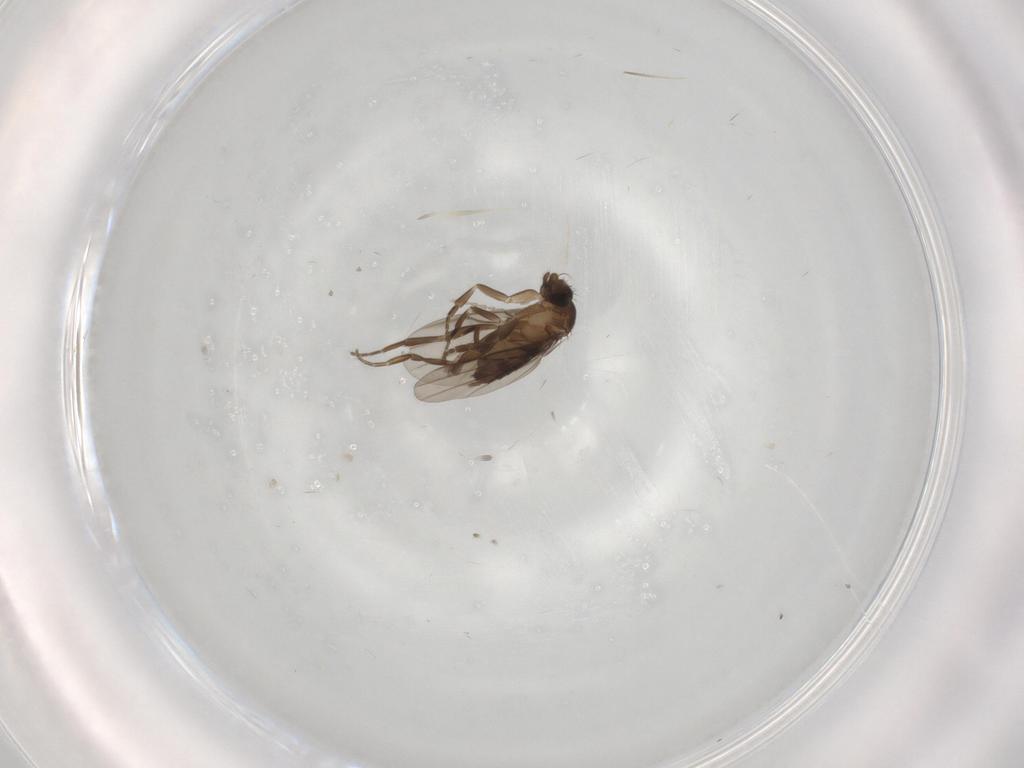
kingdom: Animalia
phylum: Arthropoda
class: Insecta
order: Diptera
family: Phoridae
